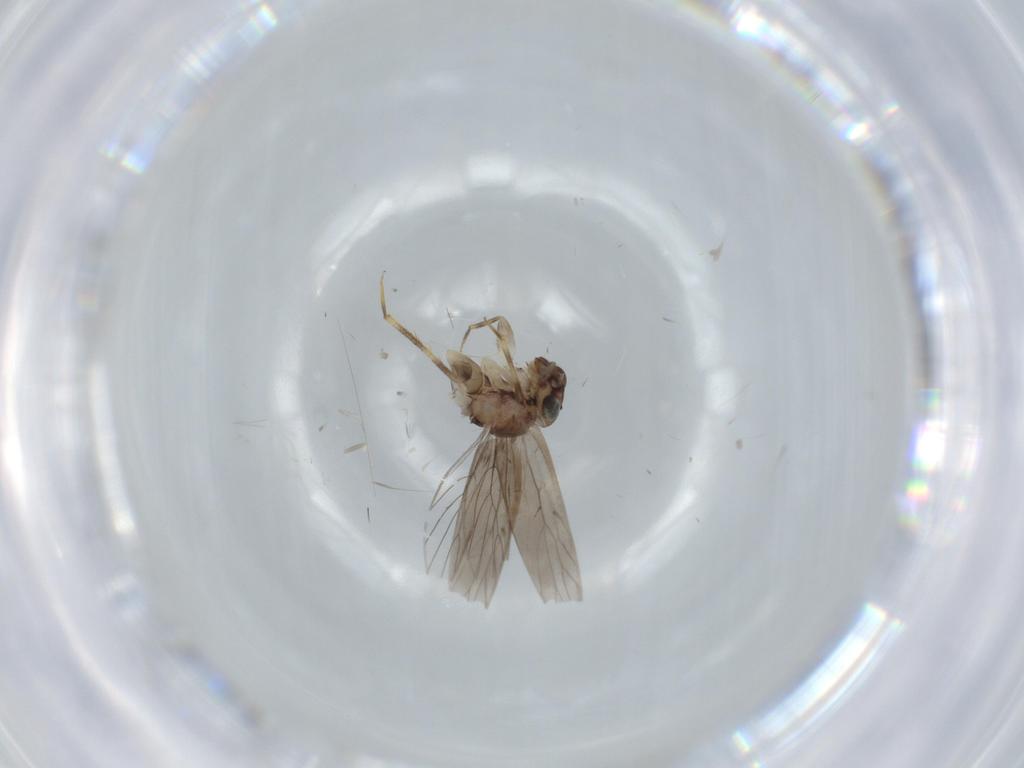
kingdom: Animalia
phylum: Arthropoda
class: Insecta
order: Psocodea
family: Lepidopsocidae
